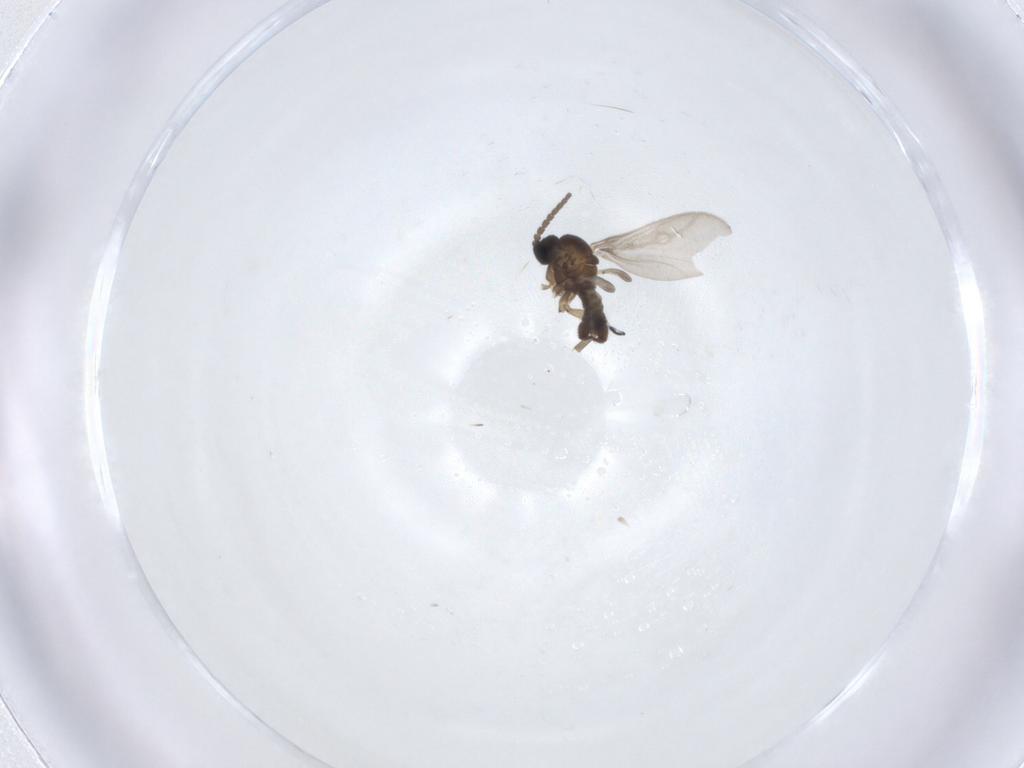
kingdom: Animalia
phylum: Arthropoda
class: Insecta
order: Diptera
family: Sciaridae
